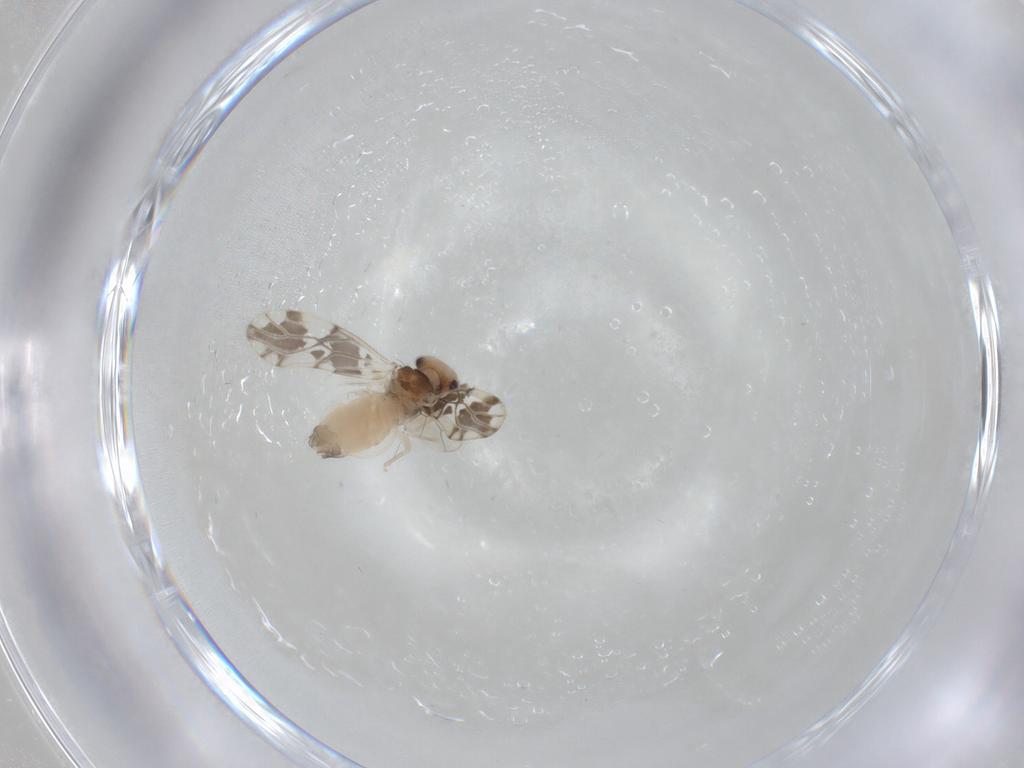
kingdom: Animalia
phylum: Arthropoda
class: Insecta
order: Psocodea
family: Ectopsocidae
